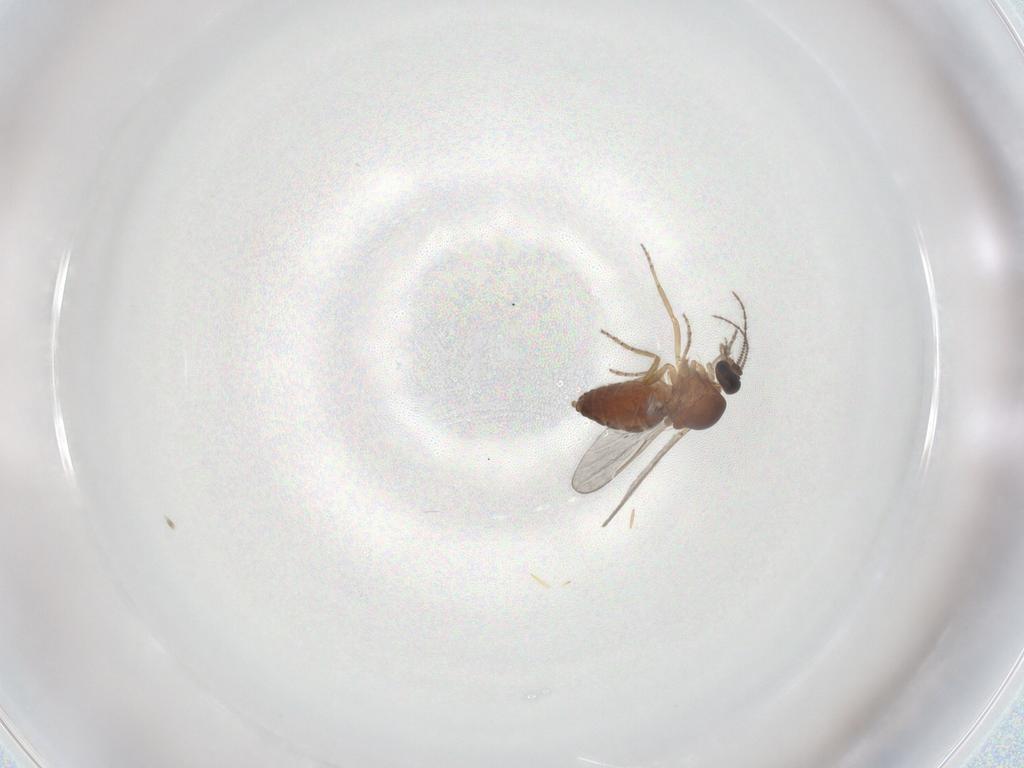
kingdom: Animalia
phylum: Arthropoda
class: Insecta
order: Diptera
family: Ceratopogonidae
